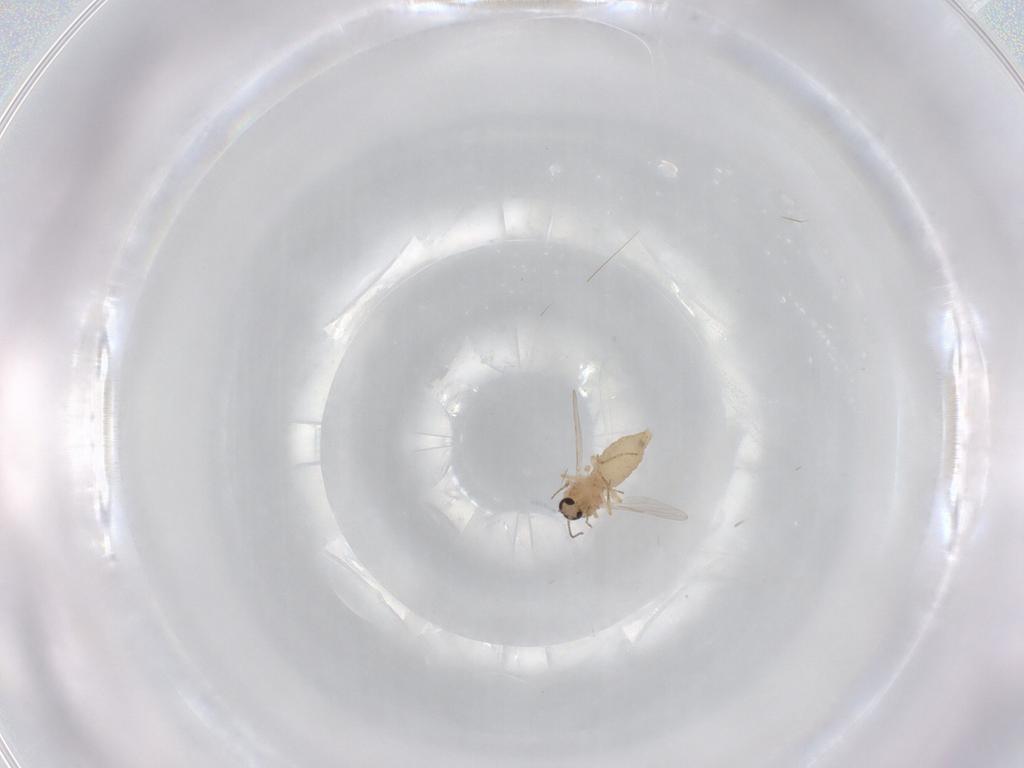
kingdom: Animalia
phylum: Arthropoda
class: Insecta
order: Diptera
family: Ceratopogonidae
